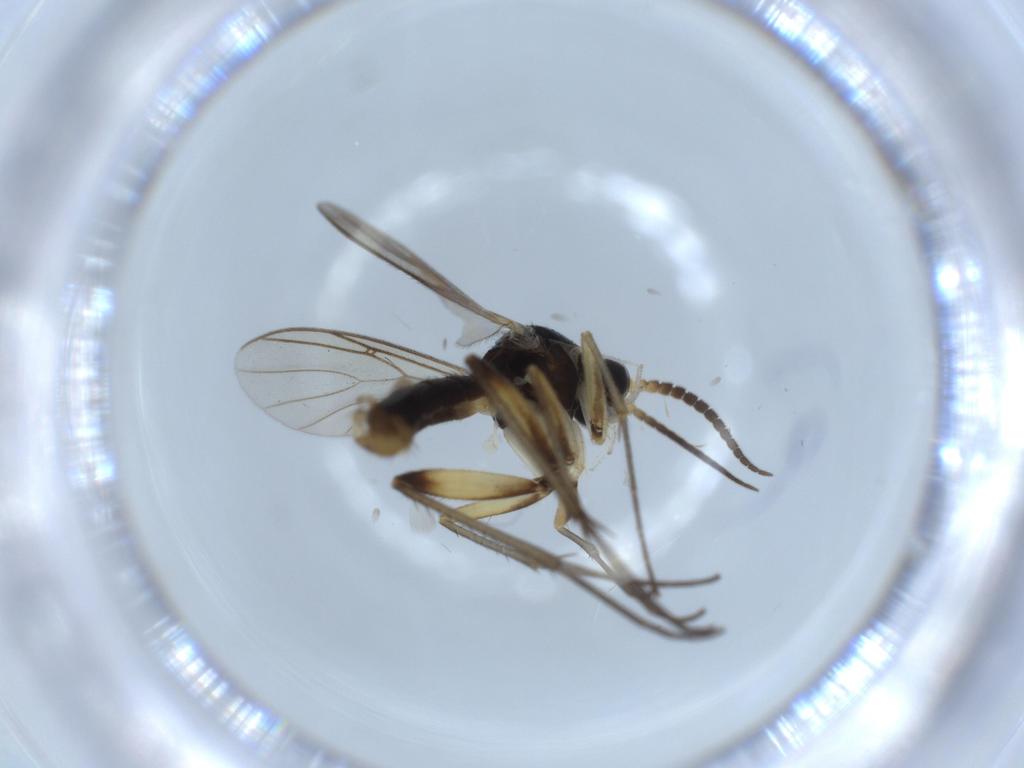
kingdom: Animalia
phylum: Arthropoda
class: Insecta
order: Diptera
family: Mycetophilidae
